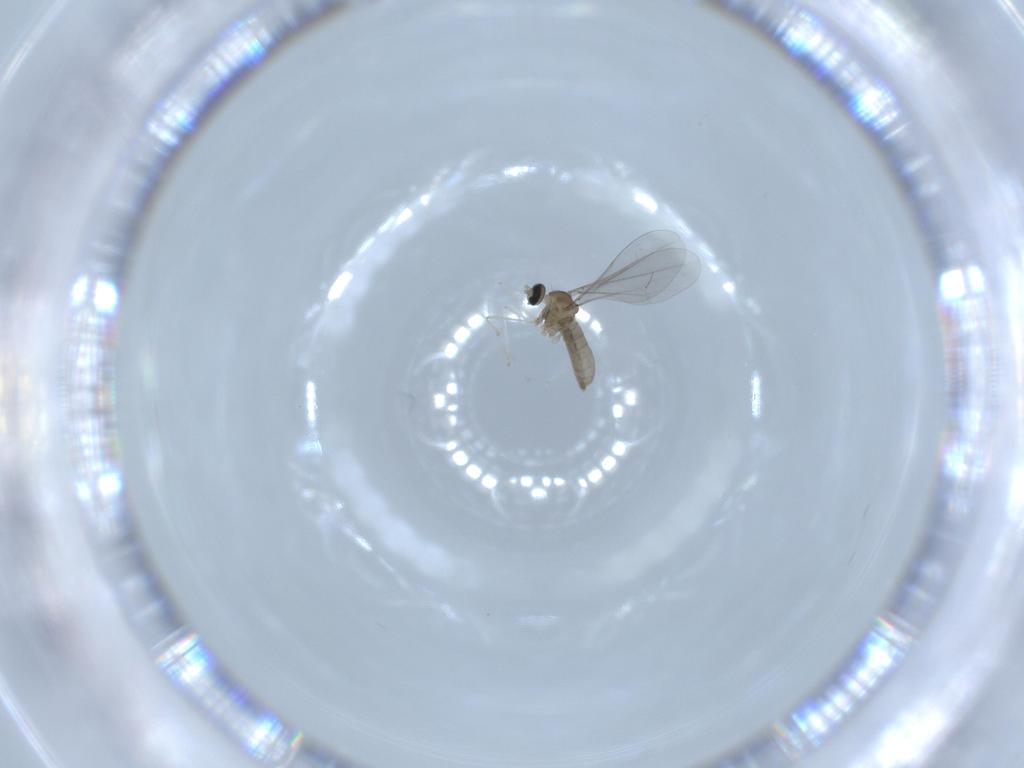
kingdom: Animalia
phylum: Arthropoda
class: Insecta
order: Diptera
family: Cecidomyiidae
